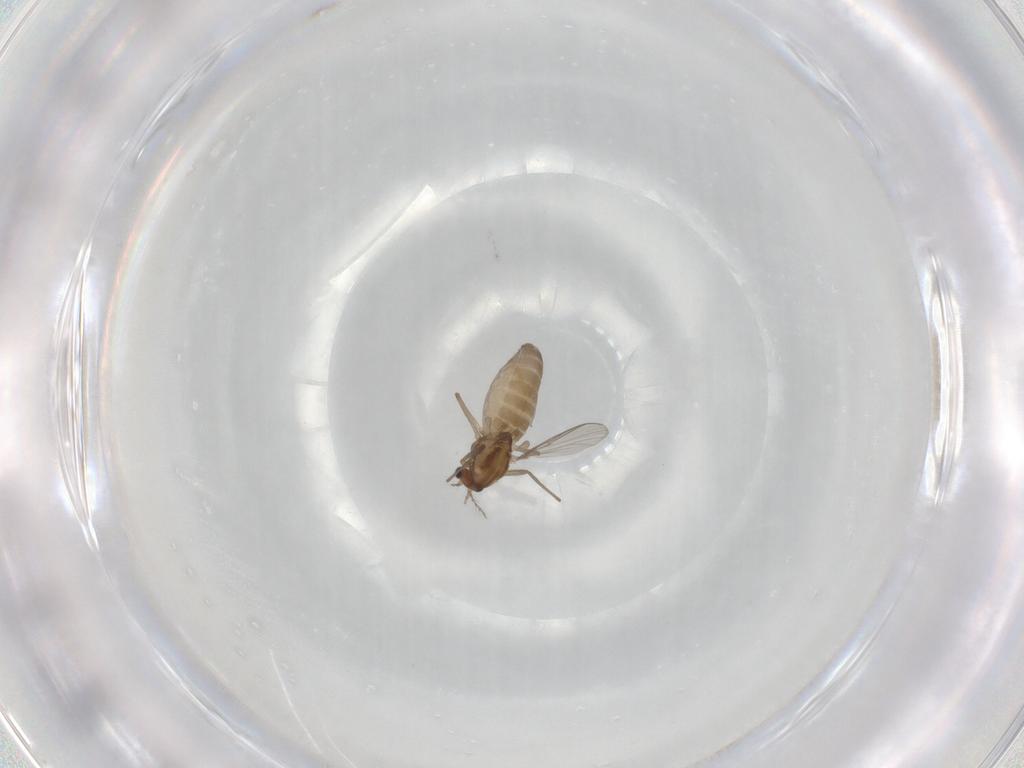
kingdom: Animalia
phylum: Arthropoda
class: Insecta
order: Diptera
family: Chironomidae
